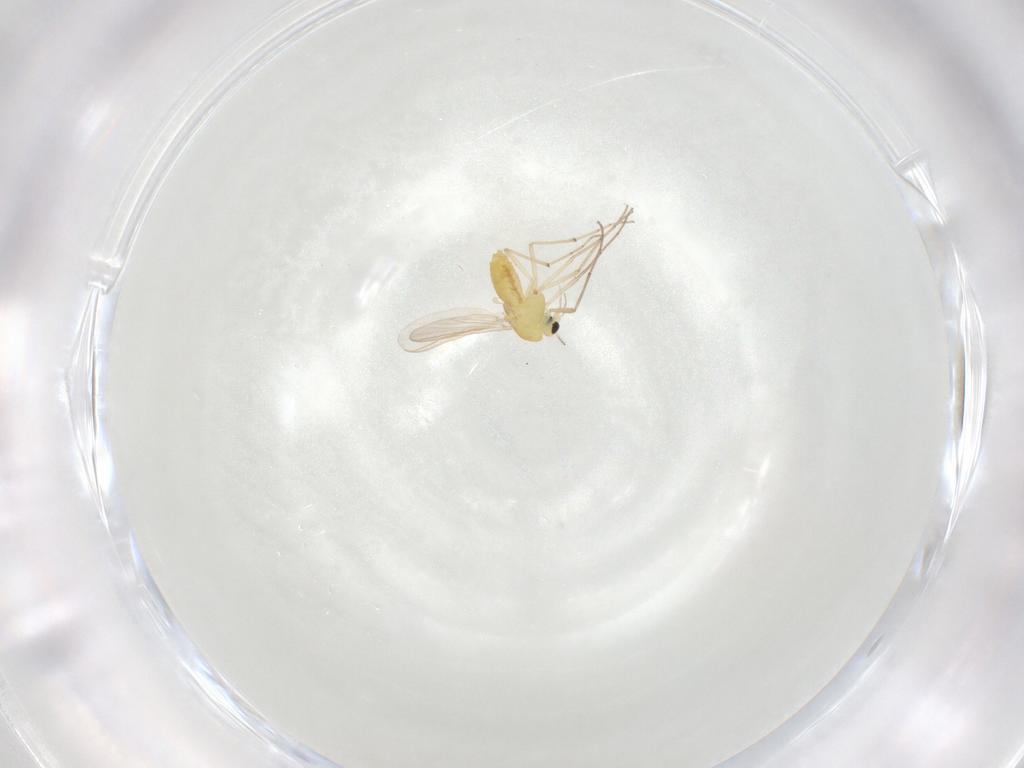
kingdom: Animalia
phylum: Arthropoda
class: Insecta
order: Diptera
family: Chironomidae
